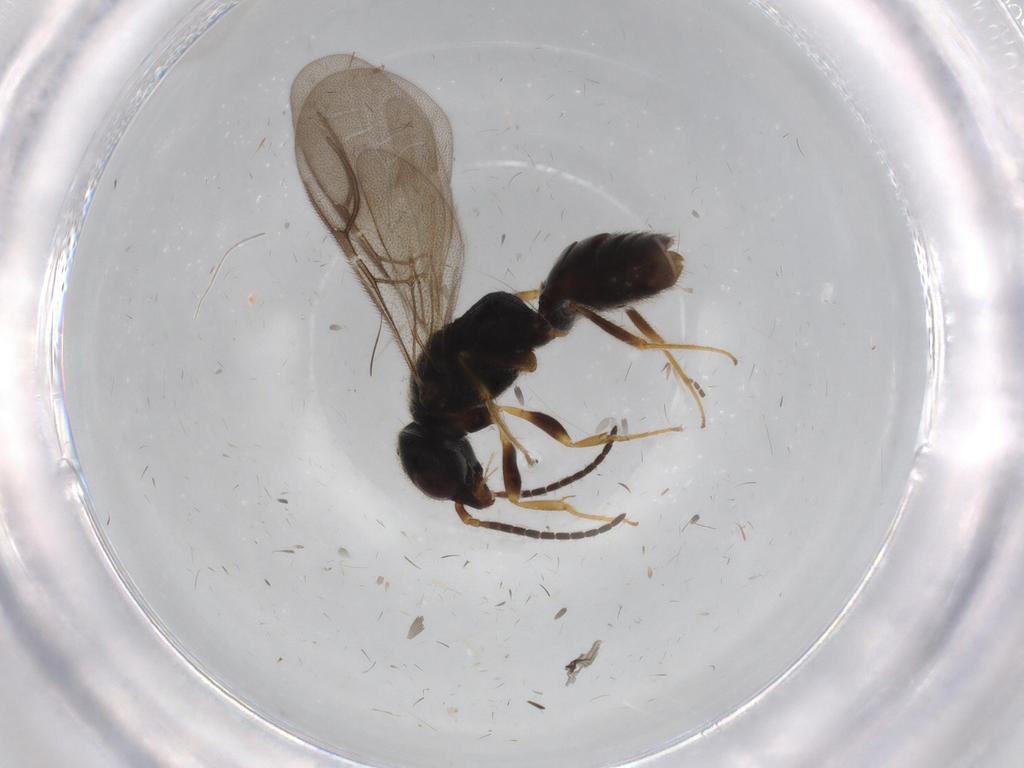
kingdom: Animalia
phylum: Arthropoda
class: Insecta
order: Hymenoptera
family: Bethylidae
